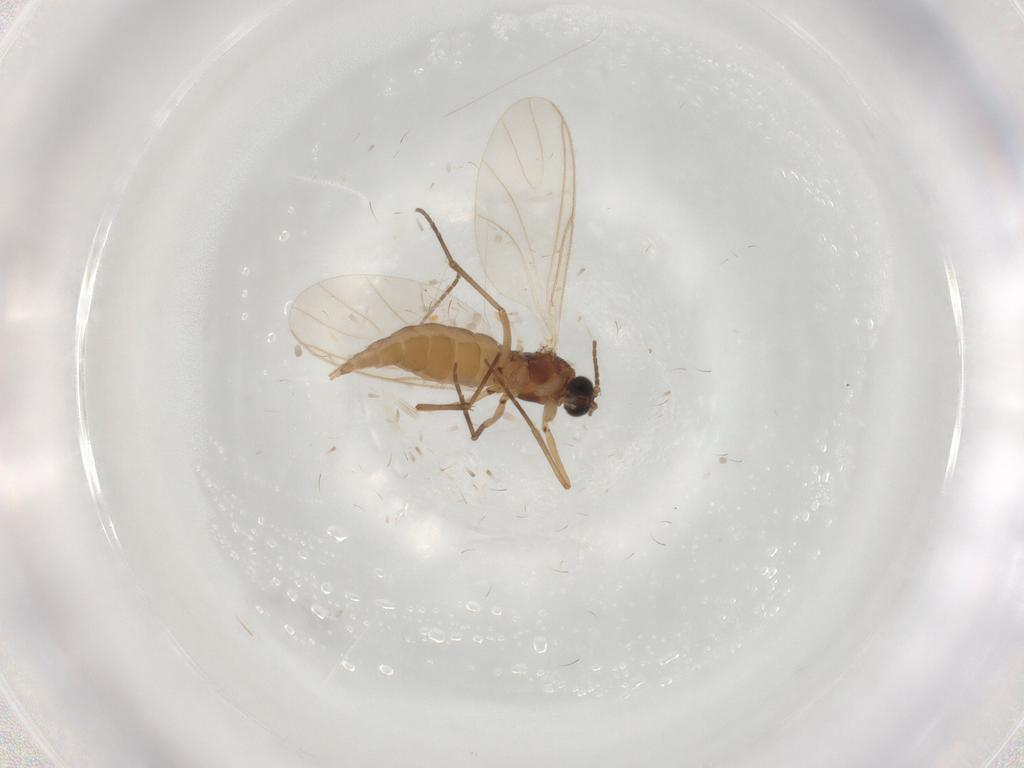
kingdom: Animalia
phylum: Arthropoda
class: Insecta
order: Diptera
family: Sciaridae
